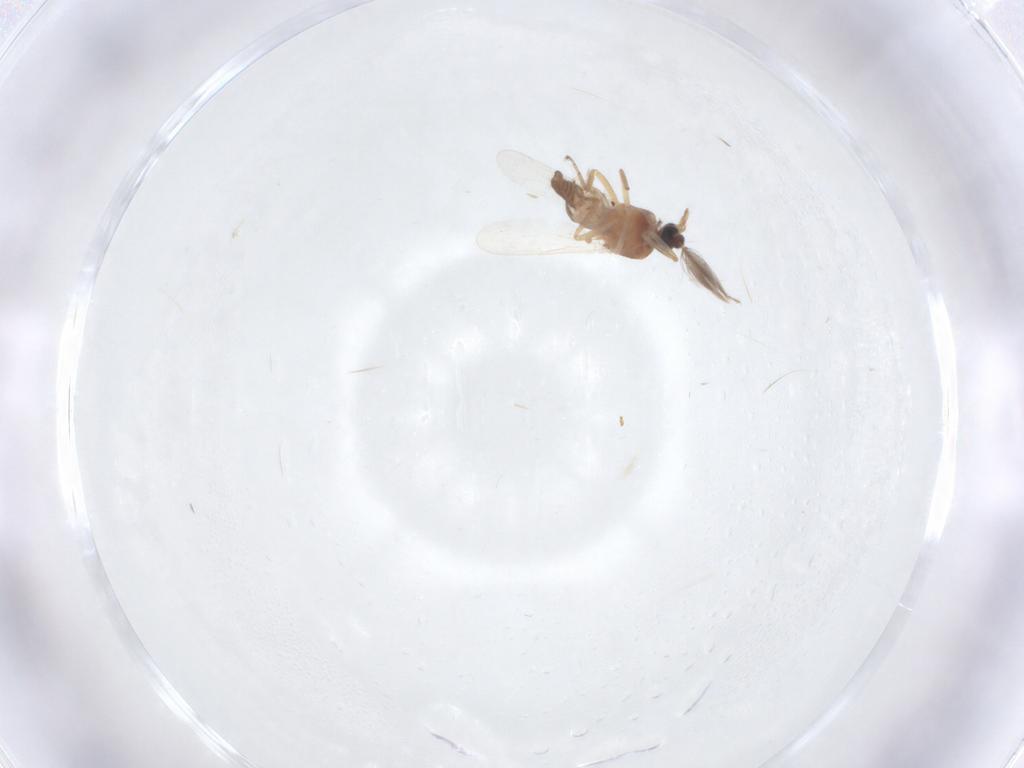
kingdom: Animalia
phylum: Arthropoda
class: Insecta
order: Diptera
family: Ceratopogonidae
